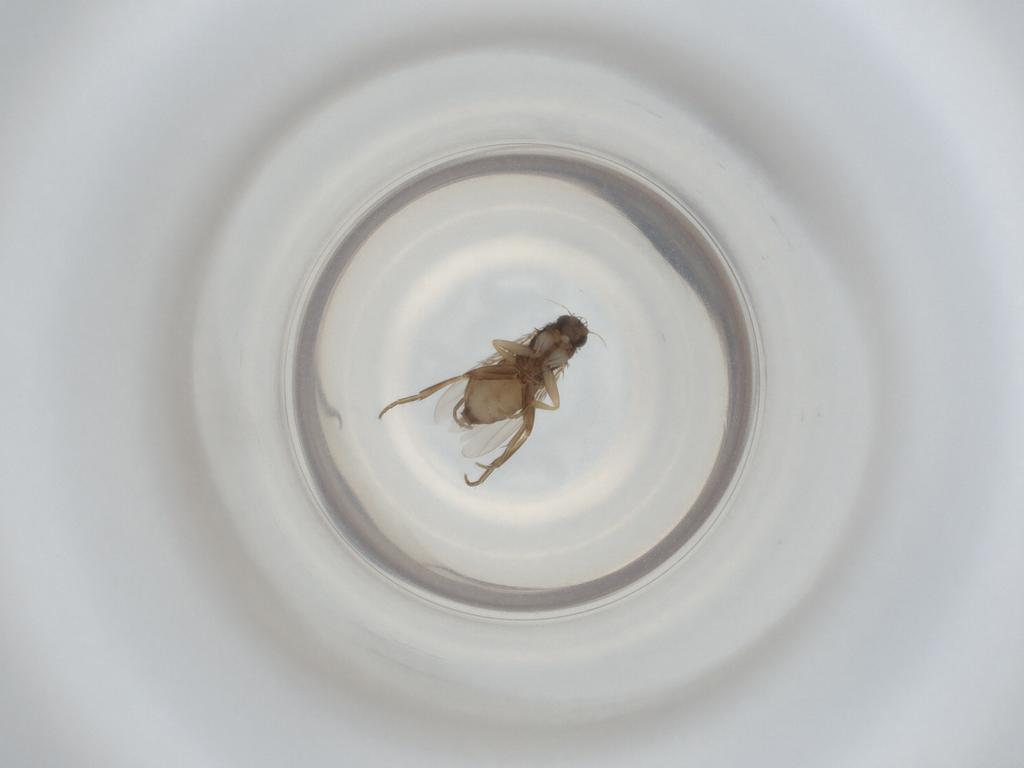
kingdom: Animalia
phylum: Arthropoda
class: Insecta
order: Diptera
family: Phoridae
